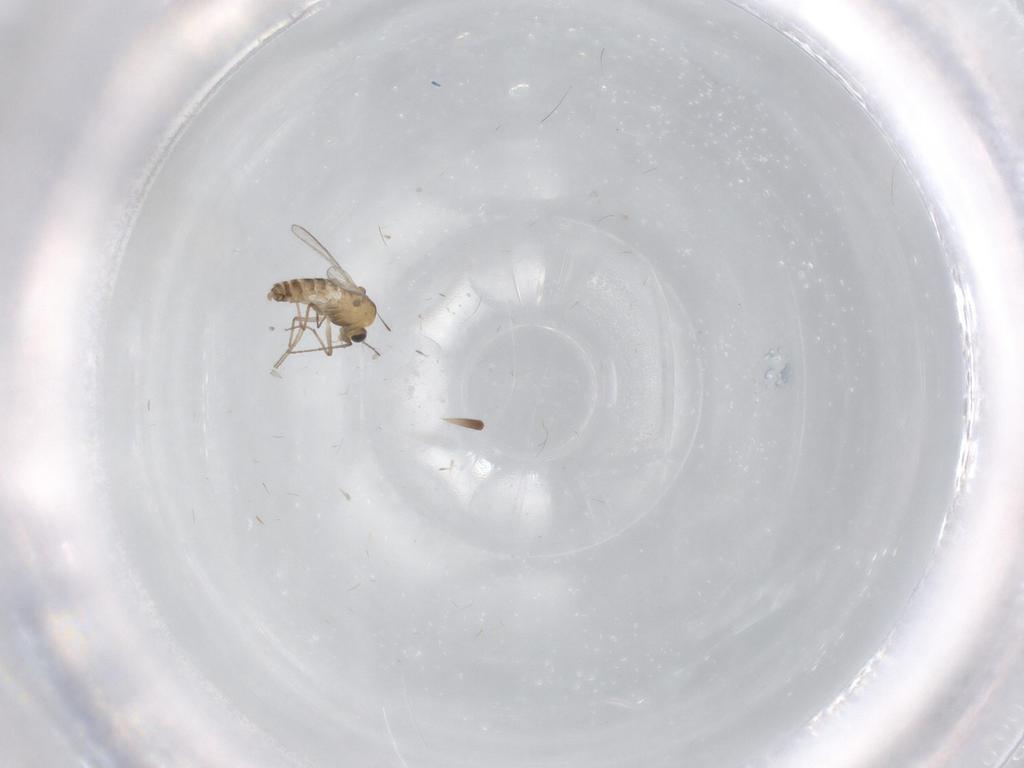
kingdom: Animalia
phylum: Arthropoda
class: Insecta
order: Diptera
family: Chironomidae
